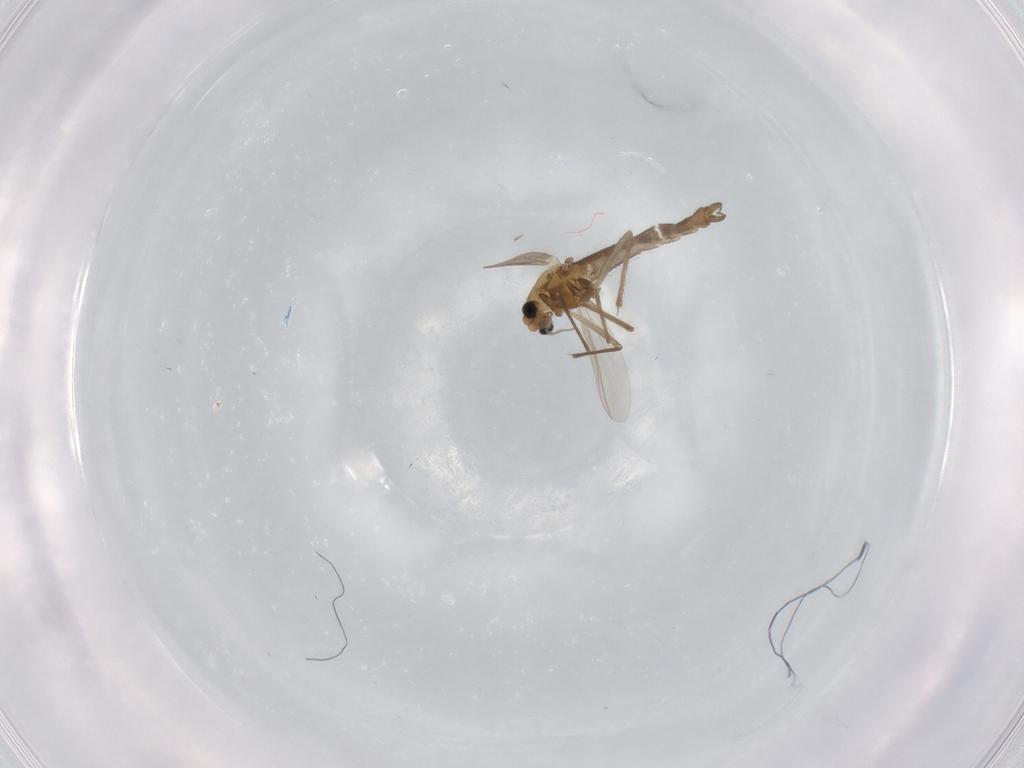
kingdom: Animalia
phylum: Arthropoda
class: Insecta
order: Diptera
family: Chironomidae
